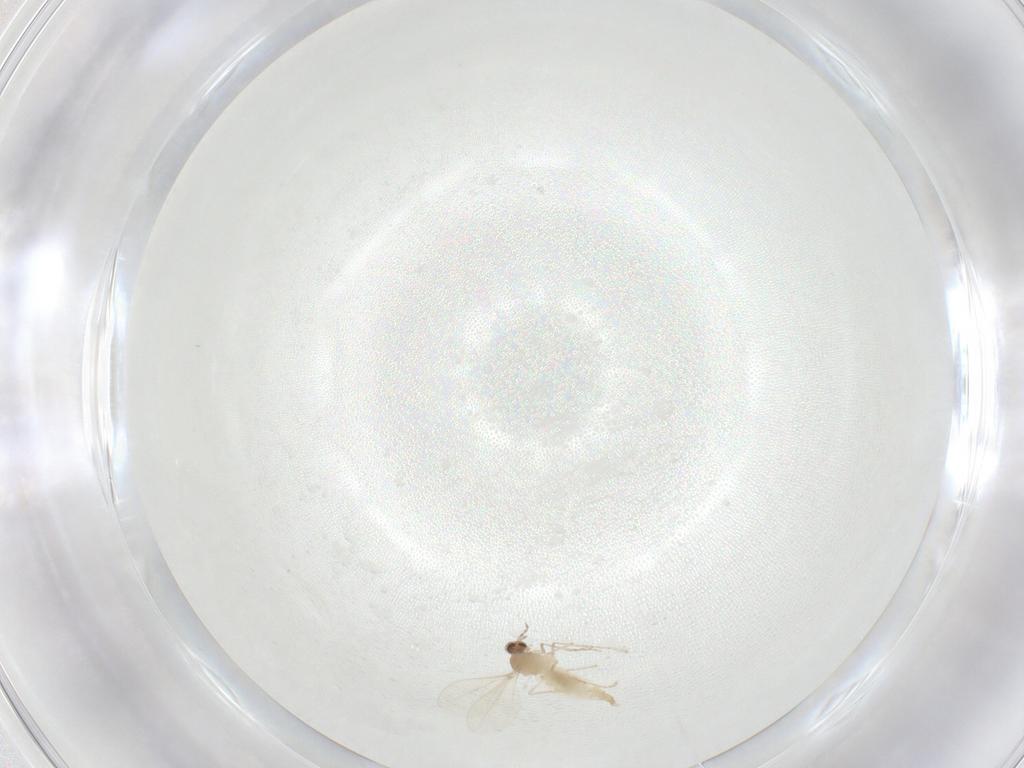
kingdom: Animalia
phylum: Arthropoda
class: Insecta
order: Diptera
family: Cecidomyiidae
